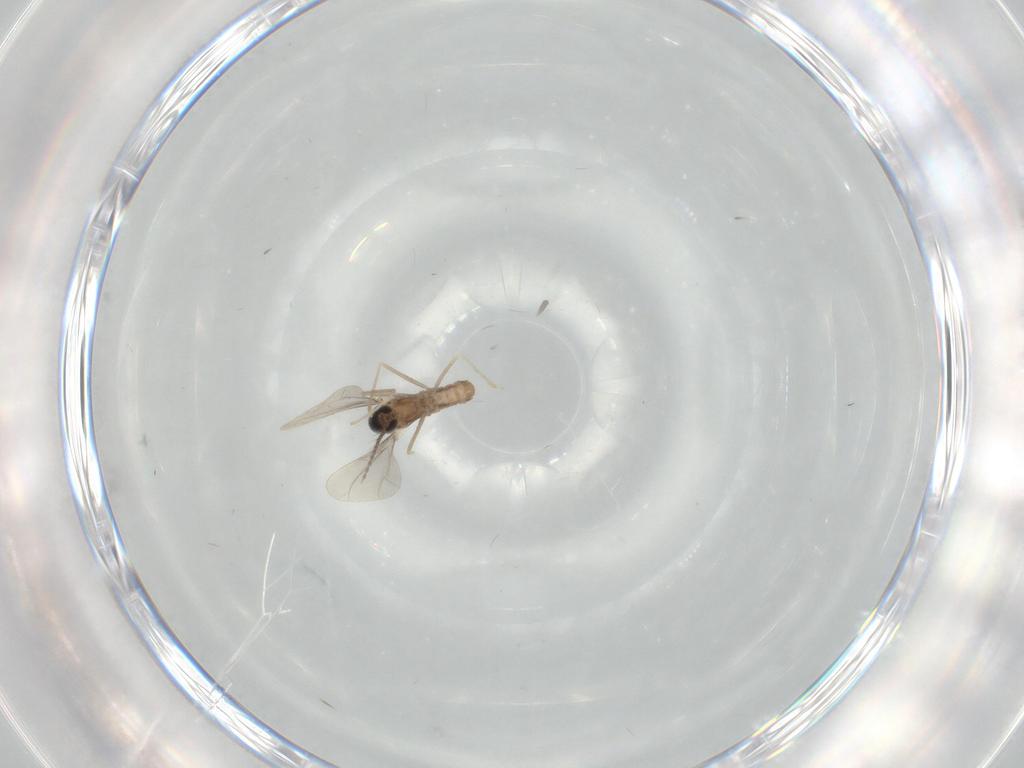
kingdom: Animalia
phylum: Arthropoda
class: Insecta
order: Diptera
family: Cecidomyiidae
